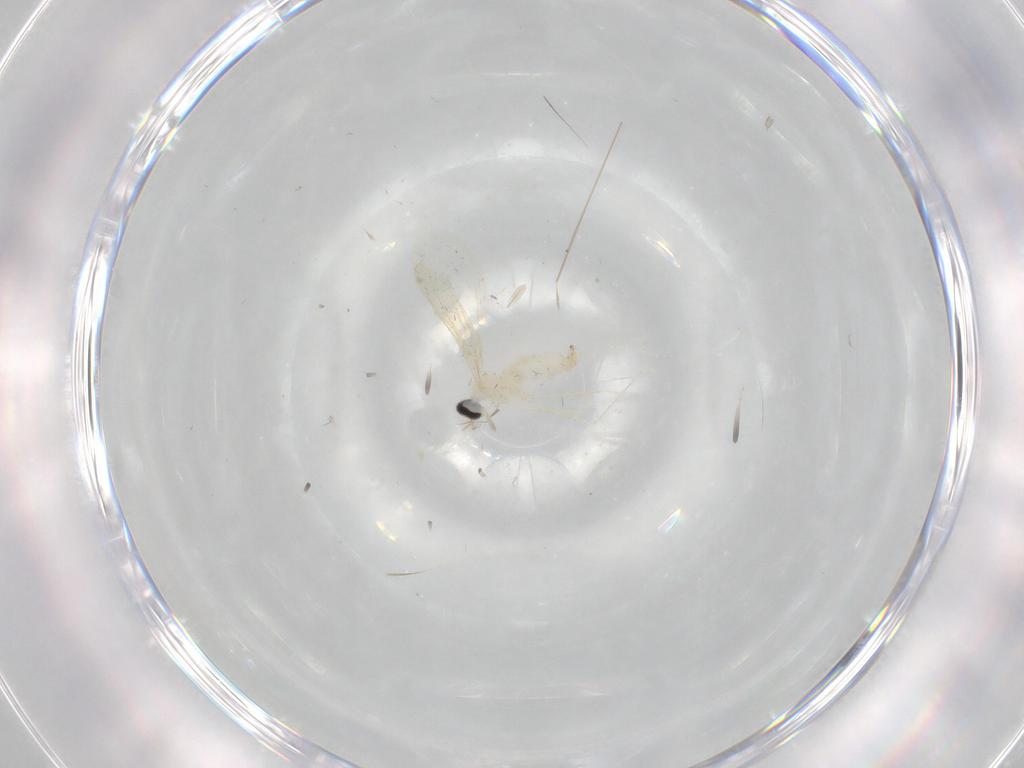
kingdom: Animalia
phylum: Arthropoda
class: Insecta
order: Diptera
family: Cecidomyiidae
